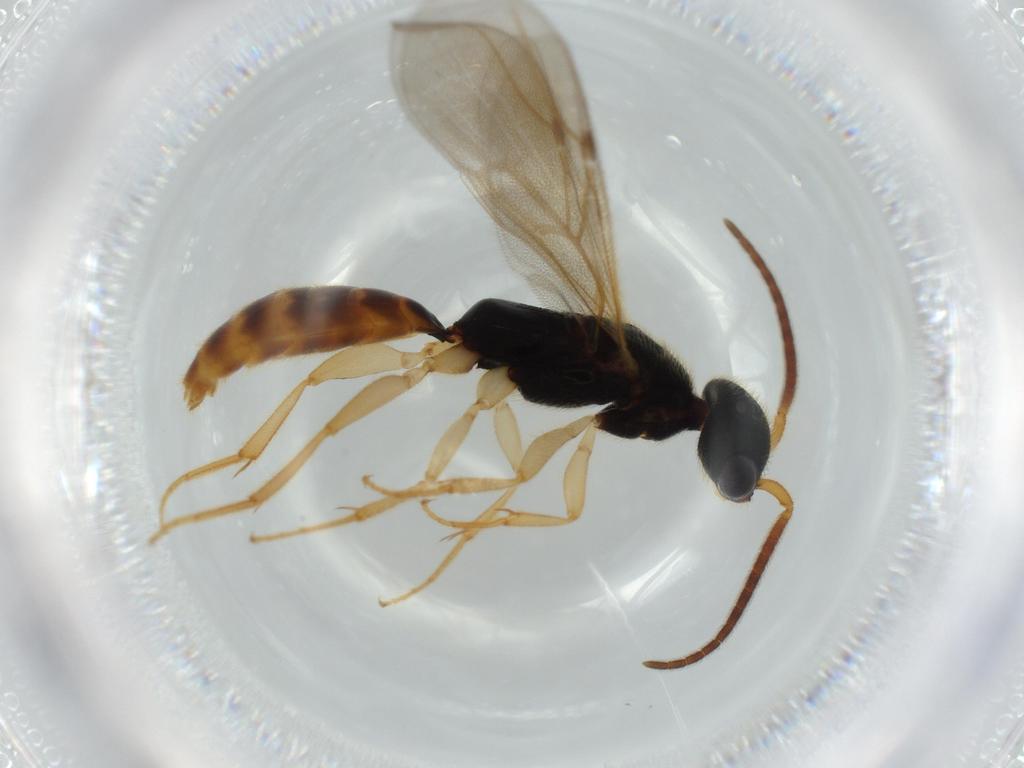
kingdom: Animalia
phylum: Arthropoda
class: Insecta
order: Hymenoptera
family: Bethylidae
